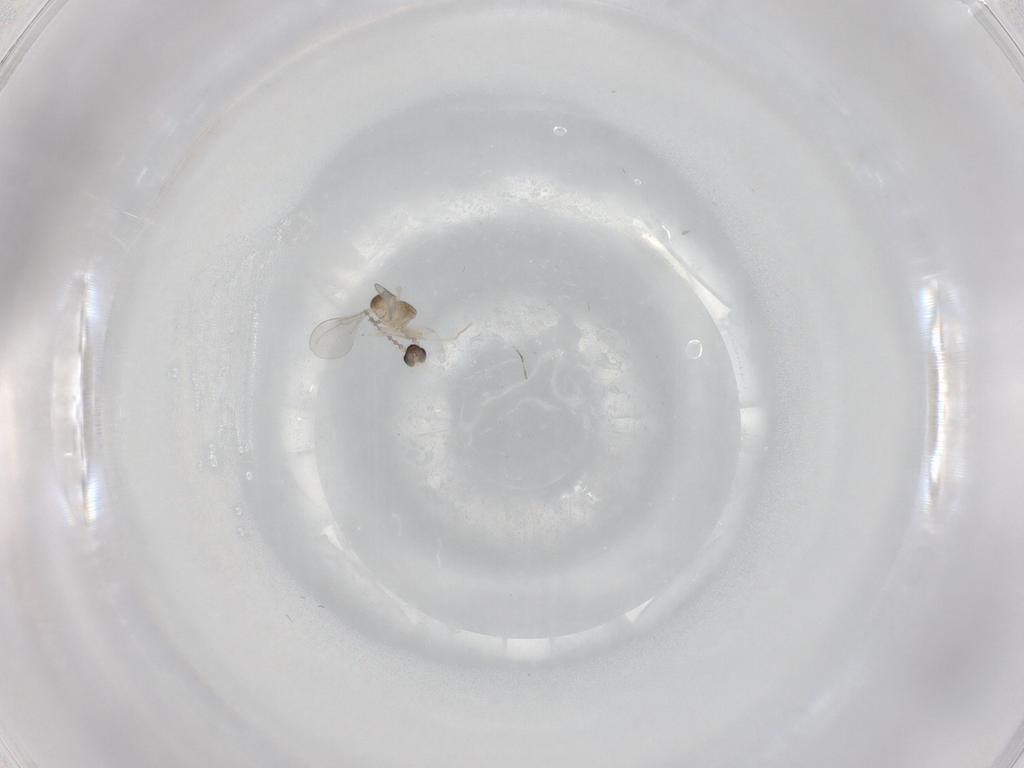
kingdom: Animalia
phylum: Arthropoda
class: Insecta
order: Diptera
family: Cecidomyiidae
